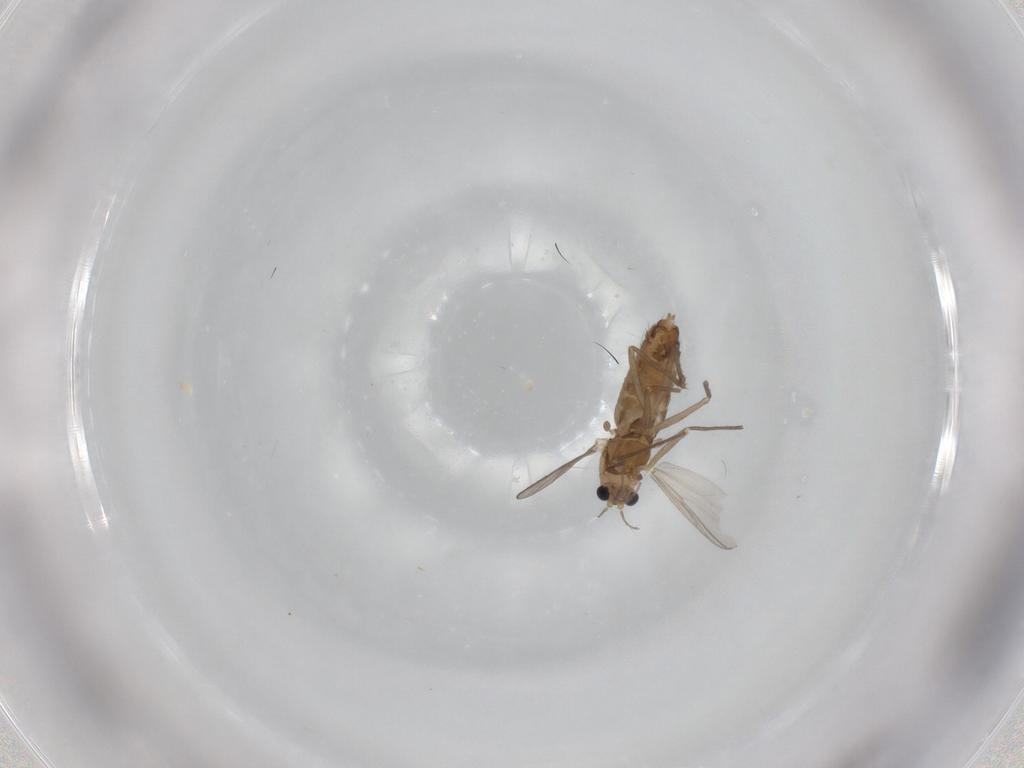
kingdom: Animalia
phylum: Arthropoda
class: Insecta
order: Diptera
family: Chironomidae
